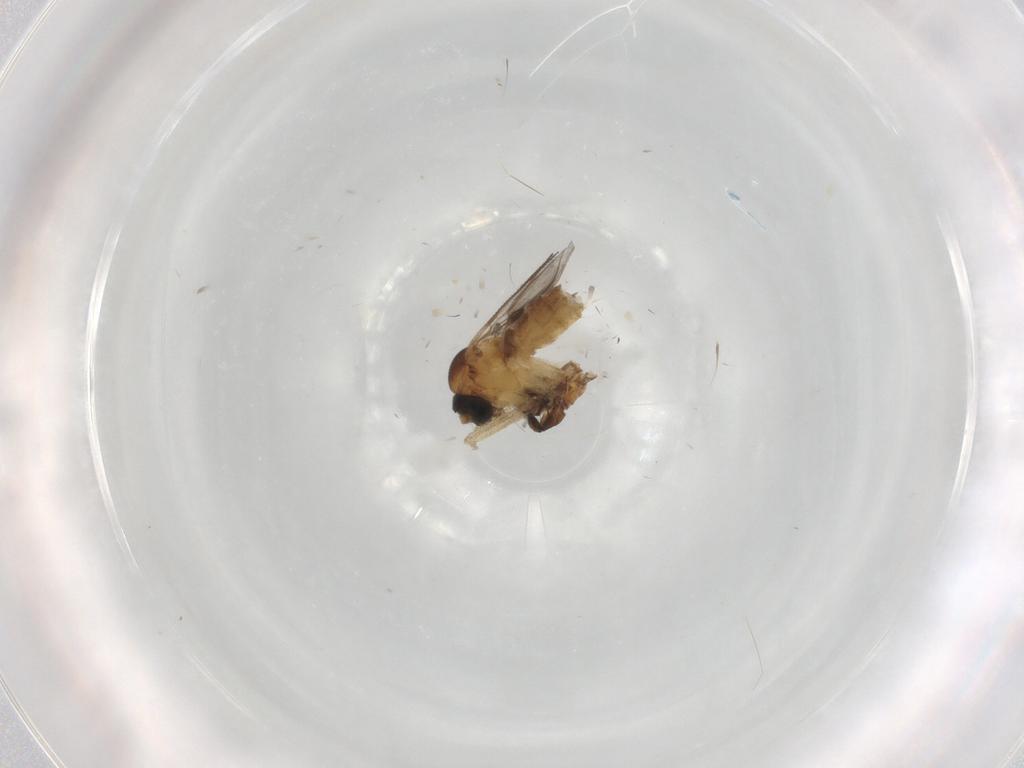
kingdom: Animalia
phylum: Arthropoda
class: Insecta
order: Diptera
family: Sciaridae
